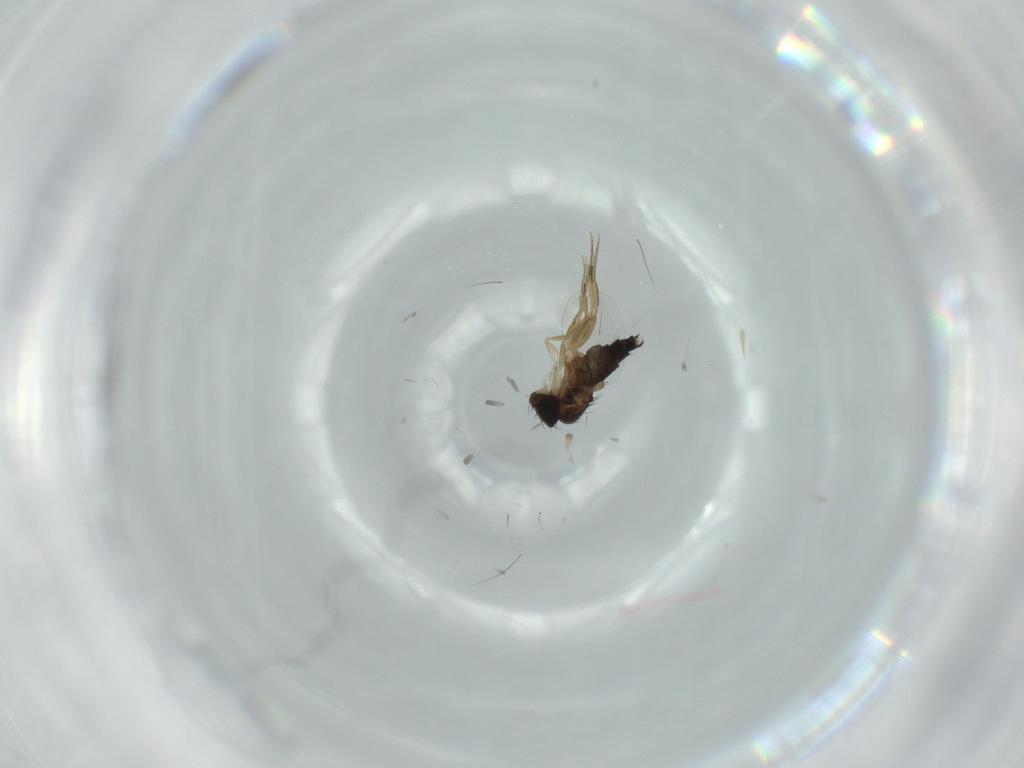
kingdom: Animalia
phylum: Arthropoda
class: Insecta
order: Diptera
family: Phoridae
